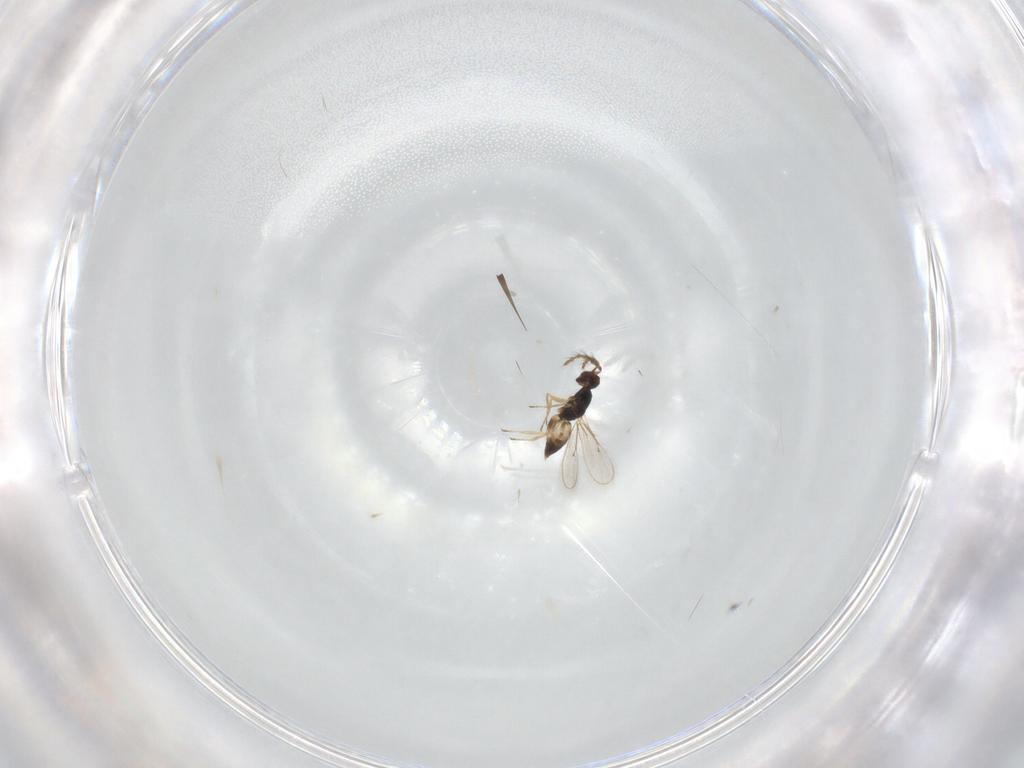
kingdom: Animalia
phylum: Arthropoda
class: Insecta
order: Hymenoptera
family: Eulophidae
